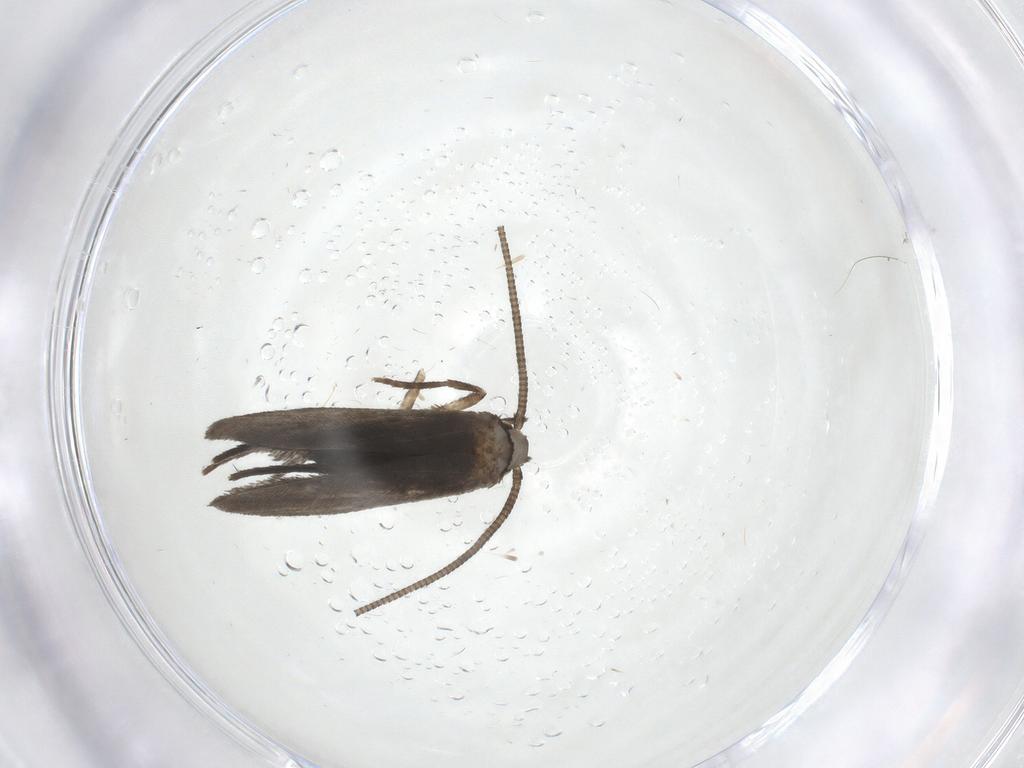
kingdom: Animalia
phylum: Arthropoda
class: Insecta
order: Lepidoptera
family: Nymphalidae
